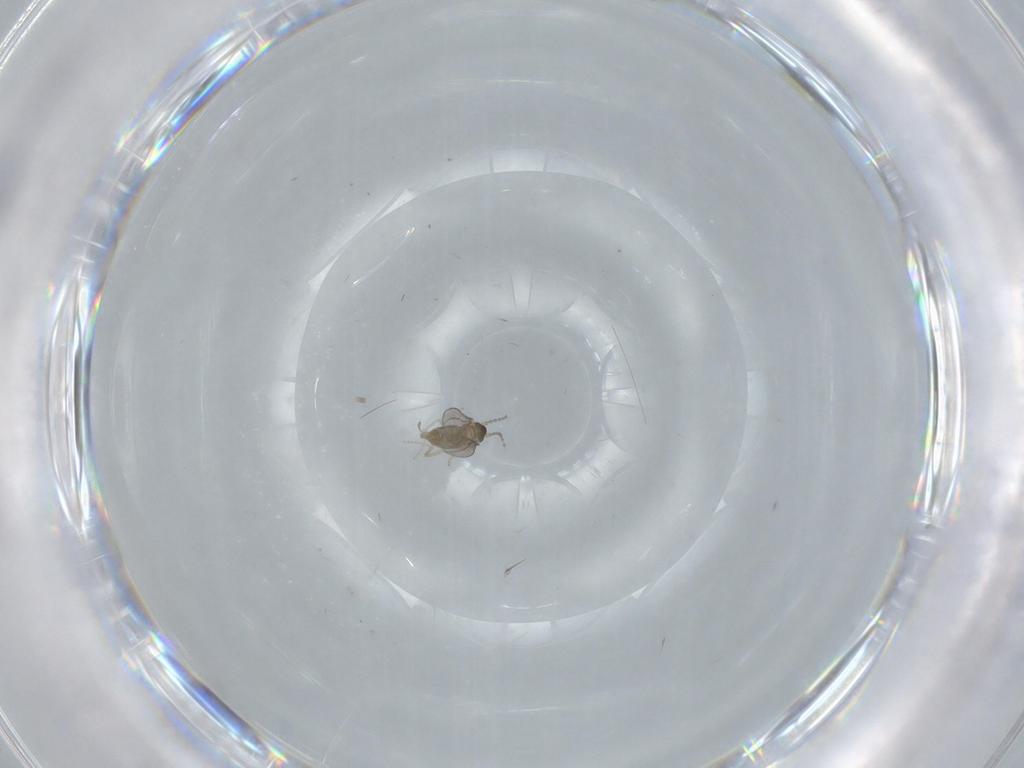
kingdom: Animalia
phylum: Arthropoda
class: Insecta
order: Diptera
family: Cecidomyiidae
